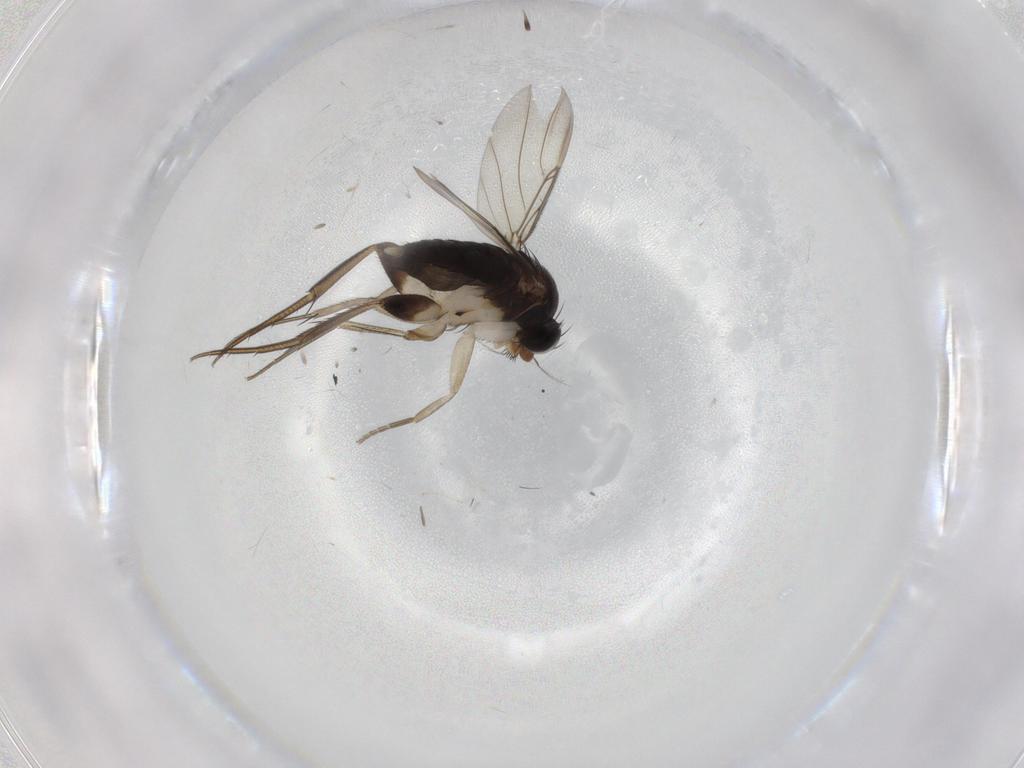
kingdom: Animalia
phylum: Arthropoda
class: Insecta
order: Diptera
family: Phoridae
